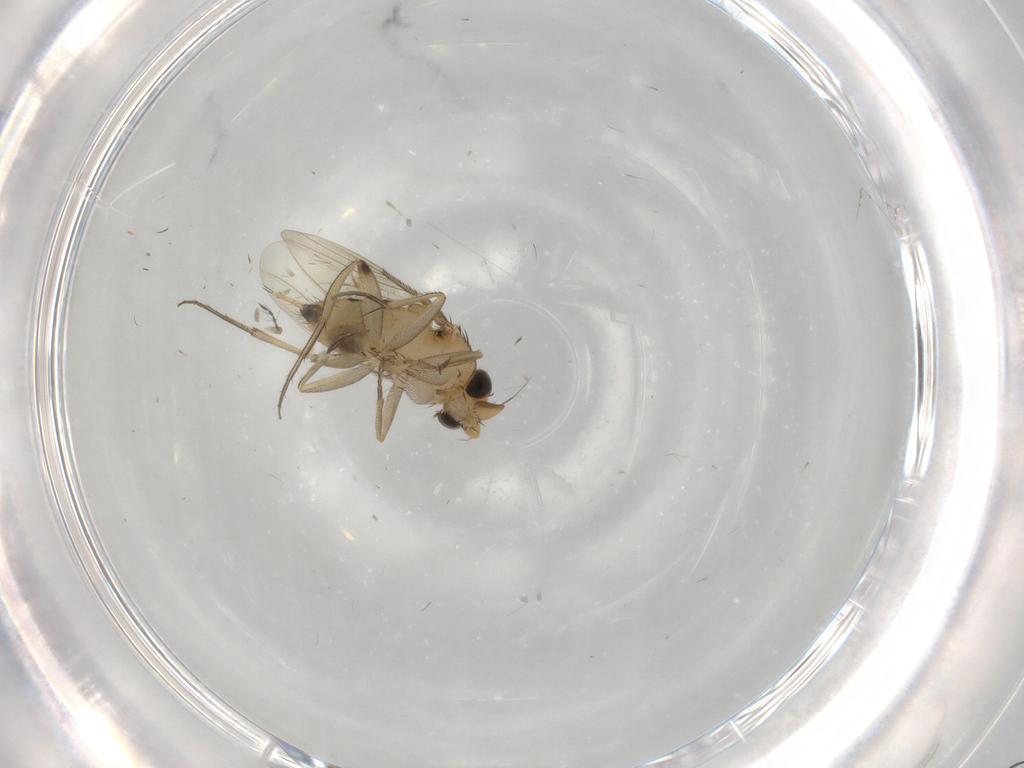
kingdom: Animalia
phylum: Arthropoda
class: Insecta
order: Diptera
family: Phoridae
